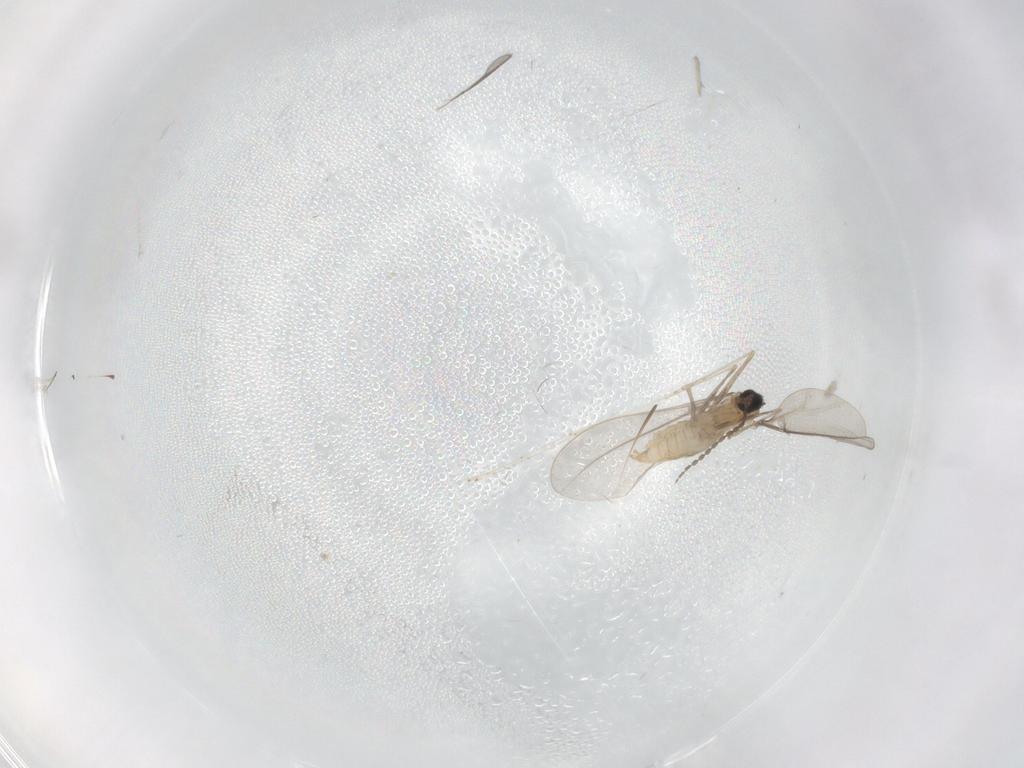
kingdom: Animalia
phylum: Arthropoda
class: Insecta
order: Diptera
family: Cecidomyiidae
